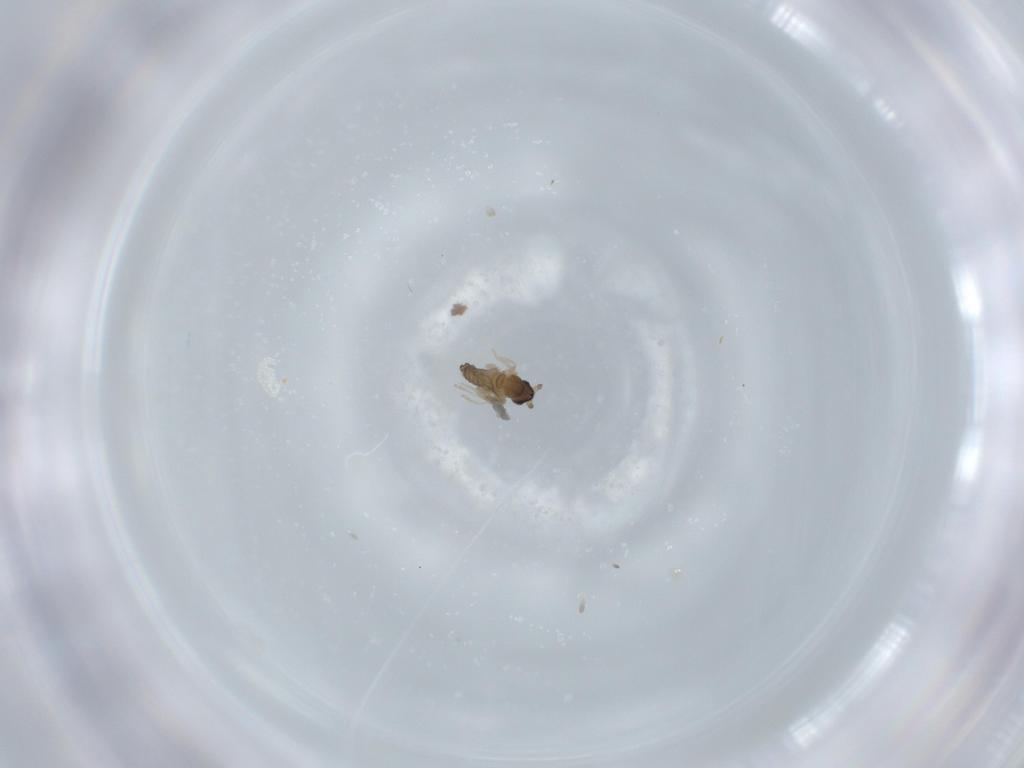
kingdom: Animalia
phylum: Arthropoda
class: Insecta
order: Diptera
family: Cecidomyiidae
